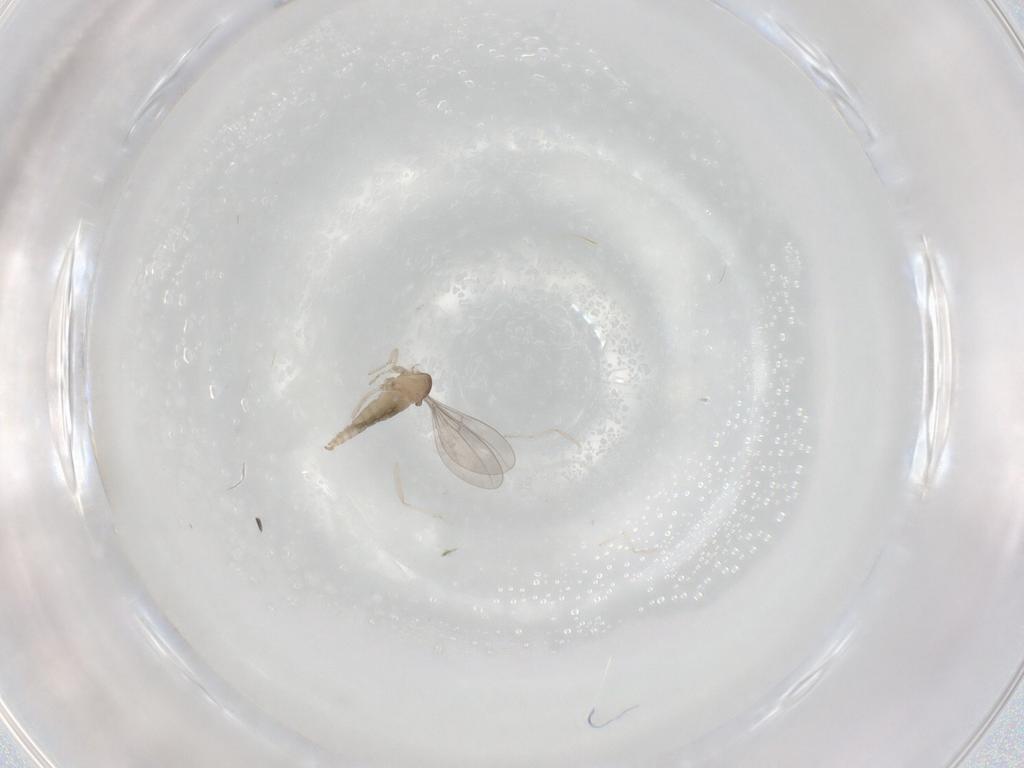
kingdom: Animalia
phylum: Arthropoda
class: Insecta
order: Diptera
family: Cecidomyiidae
